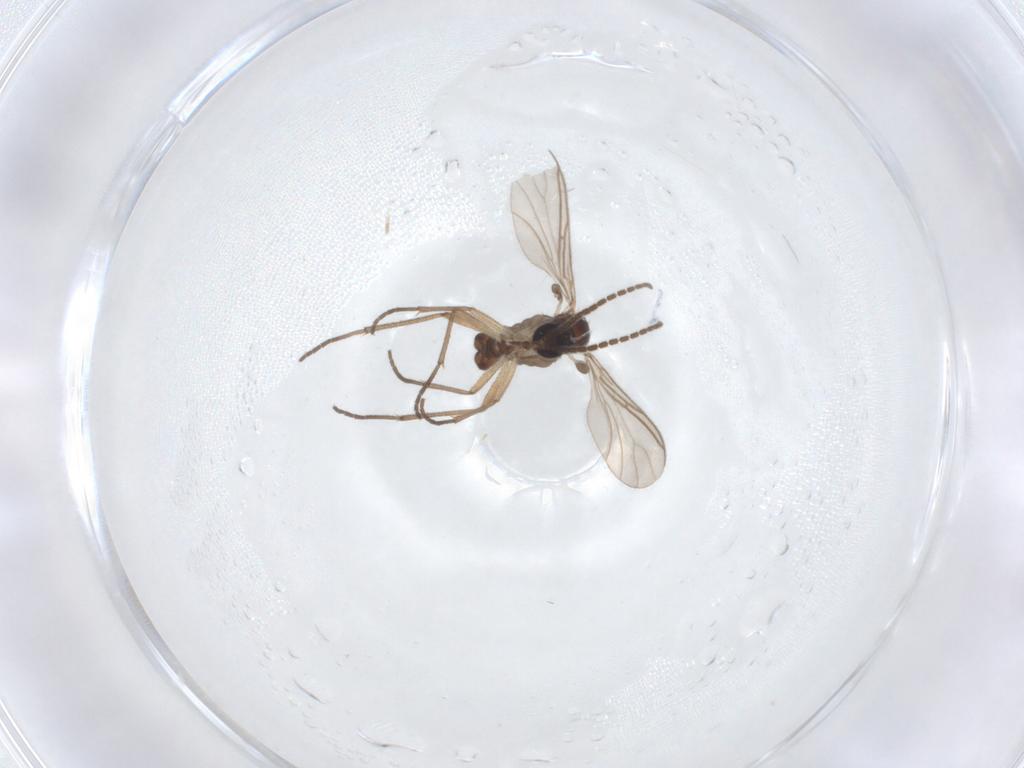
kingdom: Animalia
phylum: Arthropoda
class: Insecta
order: Diptera
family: Sciaridae
